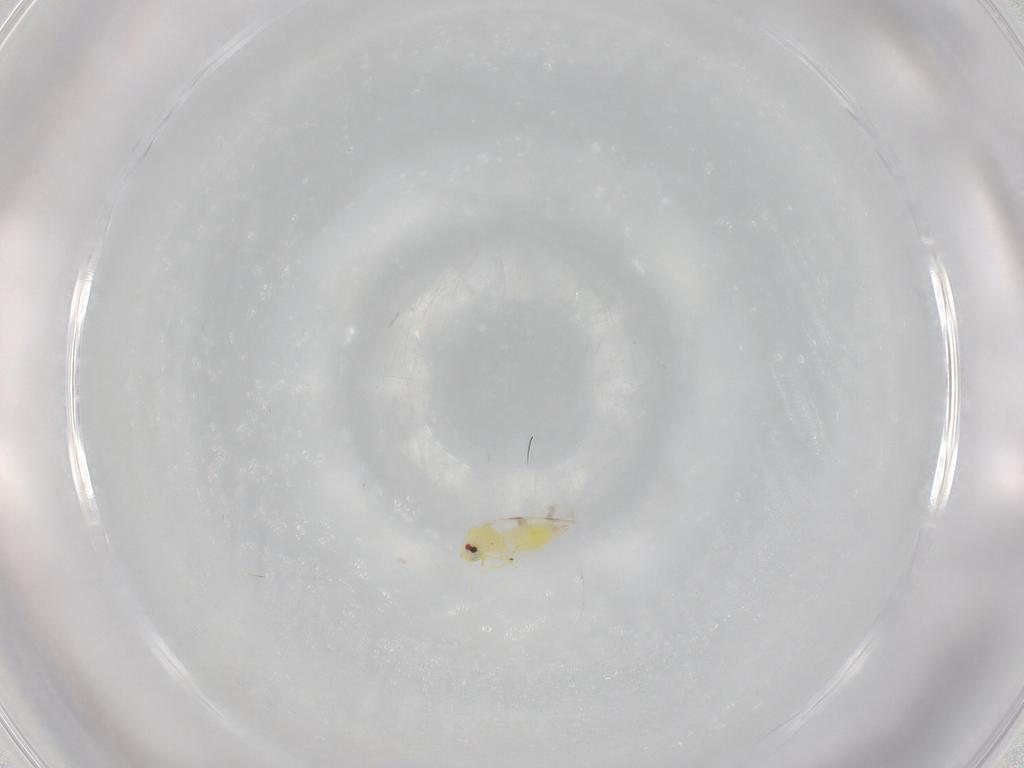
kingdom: Animalia
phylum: Arthropoda
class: Insecta
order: Hemiptera
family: Aleyrodidae
